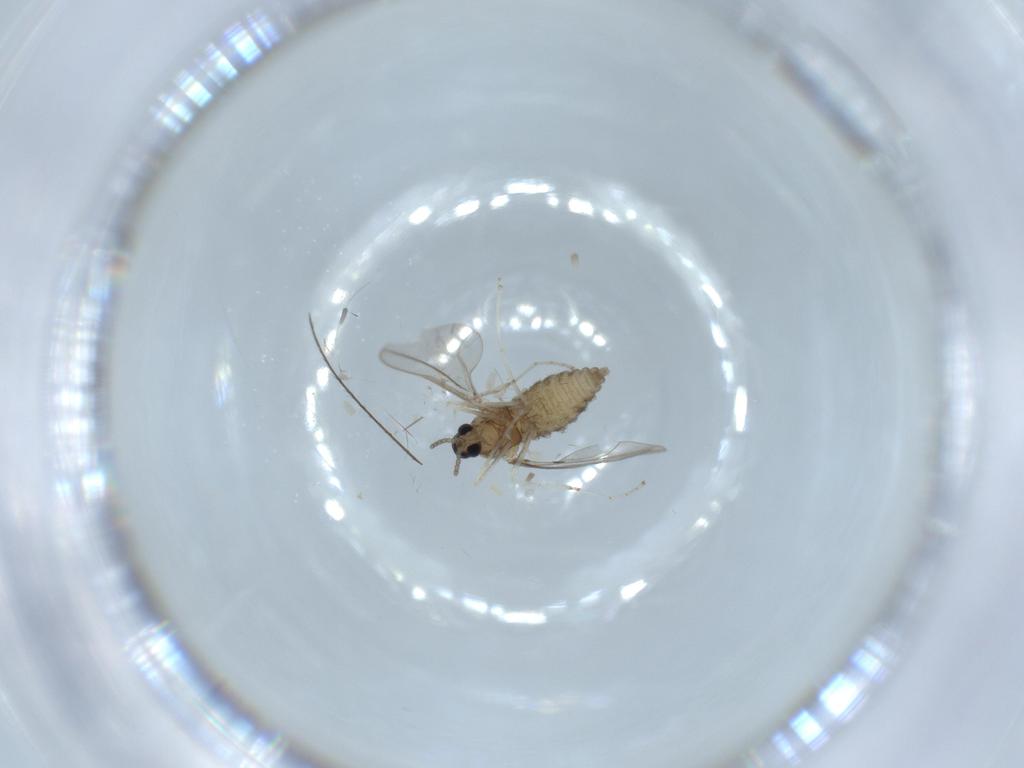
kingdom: Animalia
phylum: Arthropoda
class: Insecta
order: Diptera
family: Cecidomyiidae
